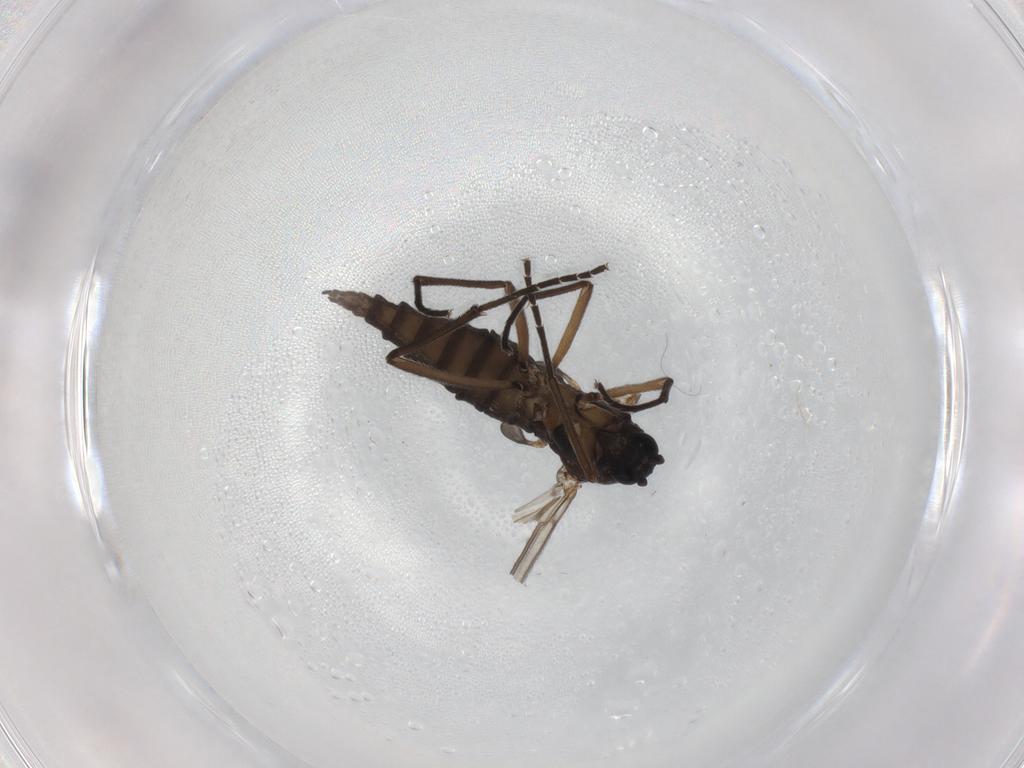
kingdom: Animalia
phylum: Arthropoda
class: Insecta
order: Diptera
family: Sciaridae
